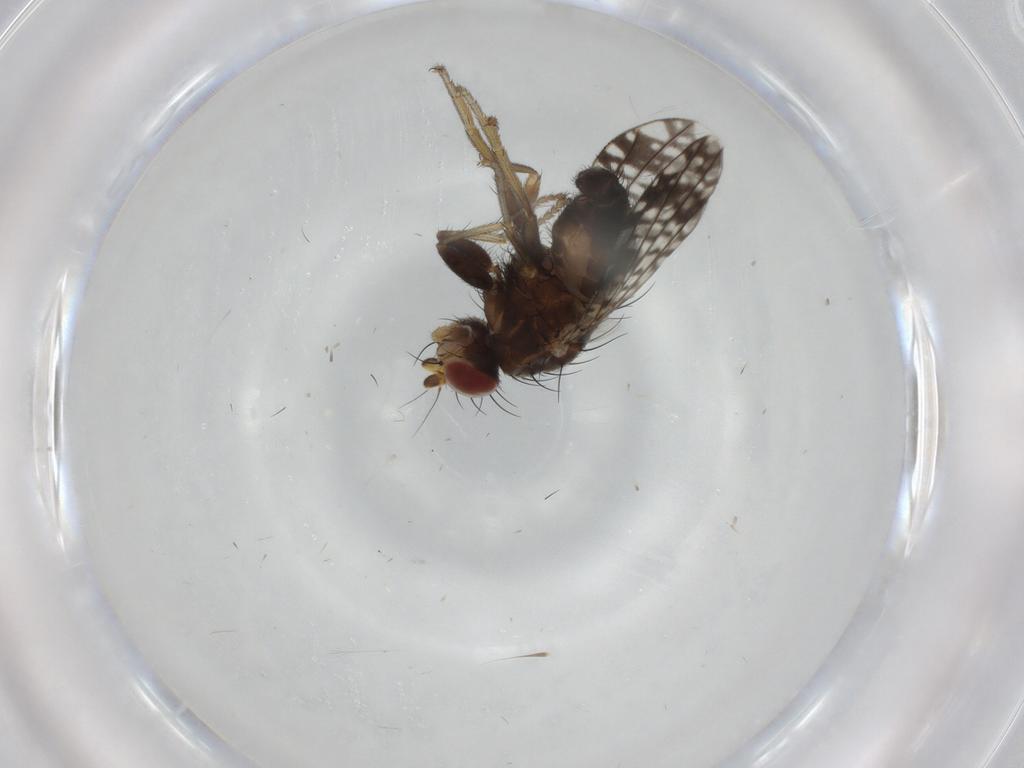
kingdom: Animalia
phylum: Arthropoda
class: Insecta
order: Diptera
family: Tephritidae
